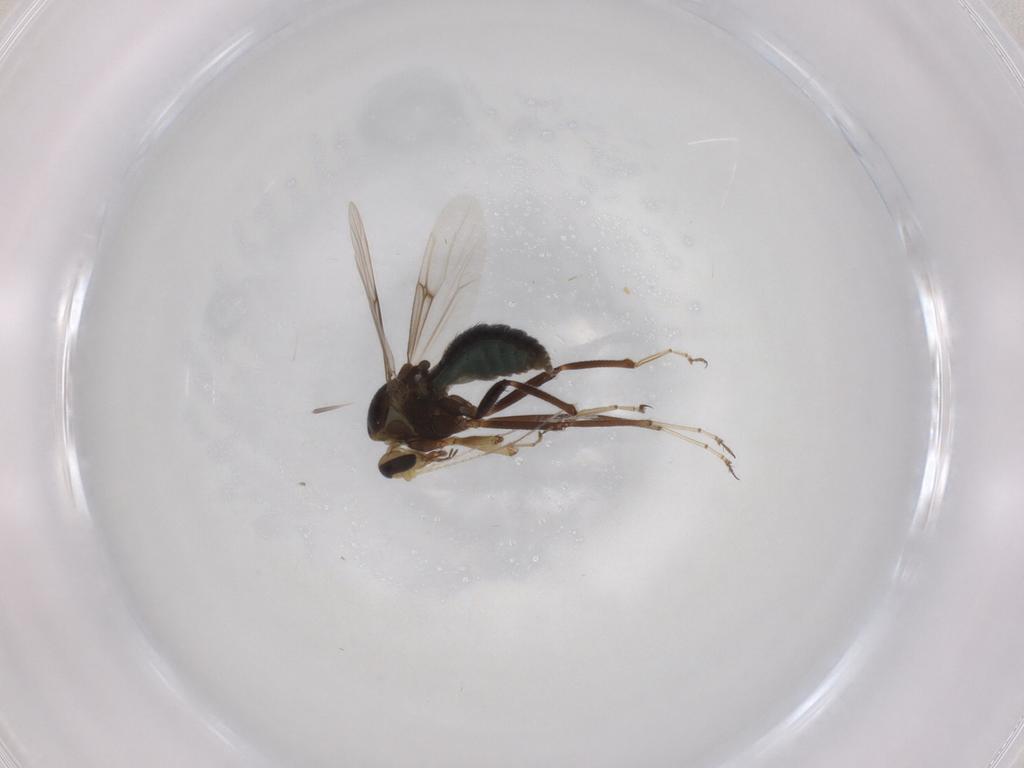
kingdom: Animalia
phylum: Arthropoda
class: Insecta
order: Diptera
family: Ceratopogonidae
